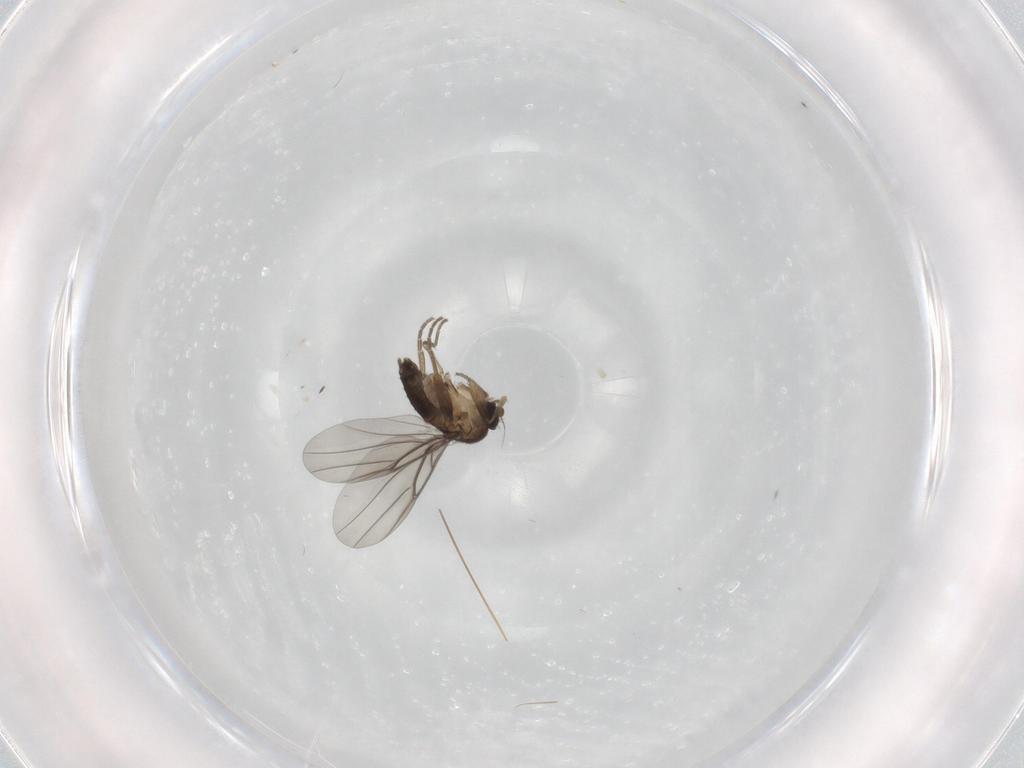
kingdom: Animalia
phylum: Arthropoda
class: Insecta
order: Diptera
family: Phoridae
